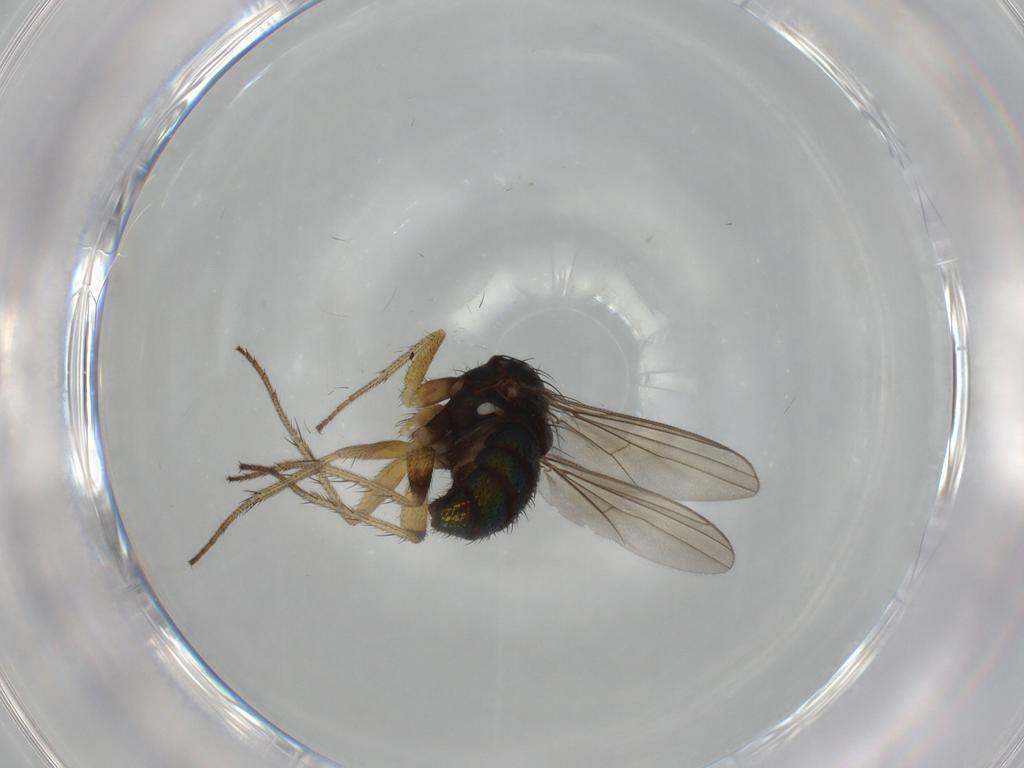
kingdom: Animalia
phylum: Arthropoda
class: Insecta
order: Diptera
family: Dolichopodidae
